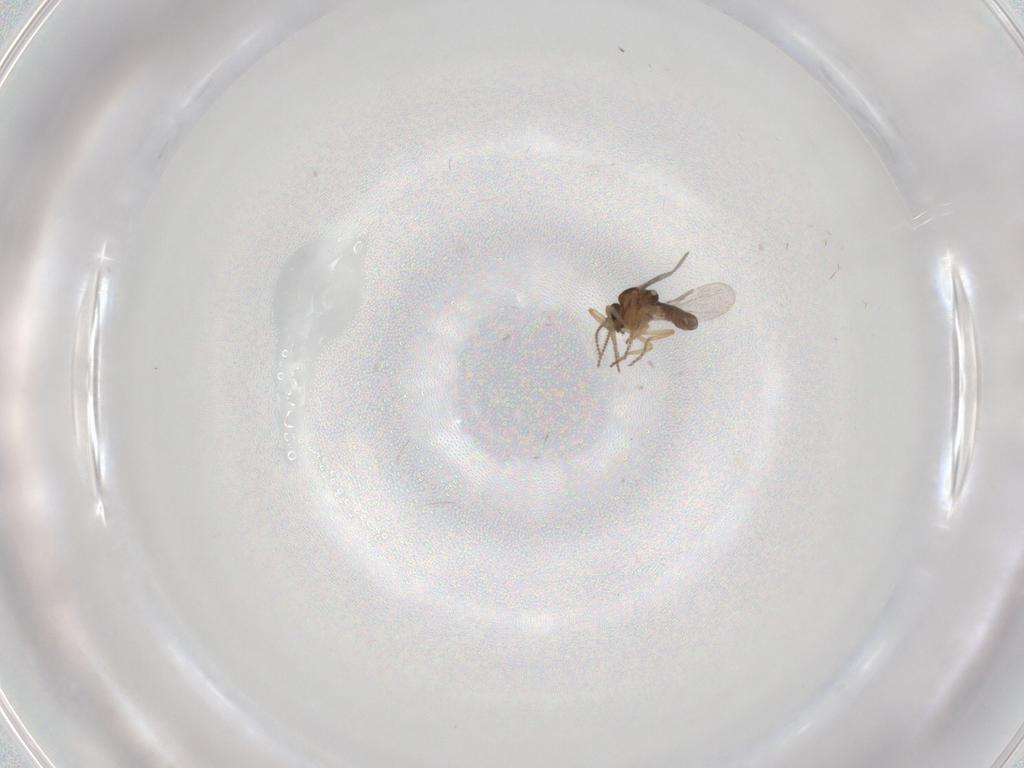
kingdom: Animalia
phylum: Arthropoda
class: Insecta
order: Diptera
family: Ceratopogonidae
